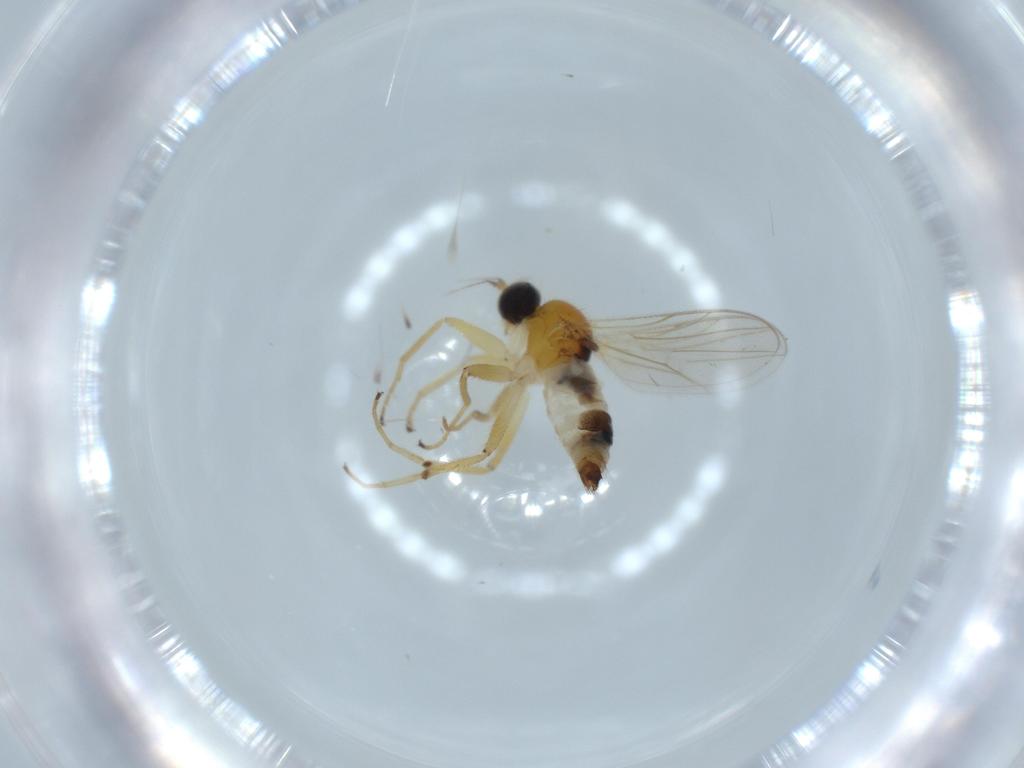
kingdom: Animalia
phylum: Arthropoda
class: Insecta
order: Diptera
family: Hybotidae
